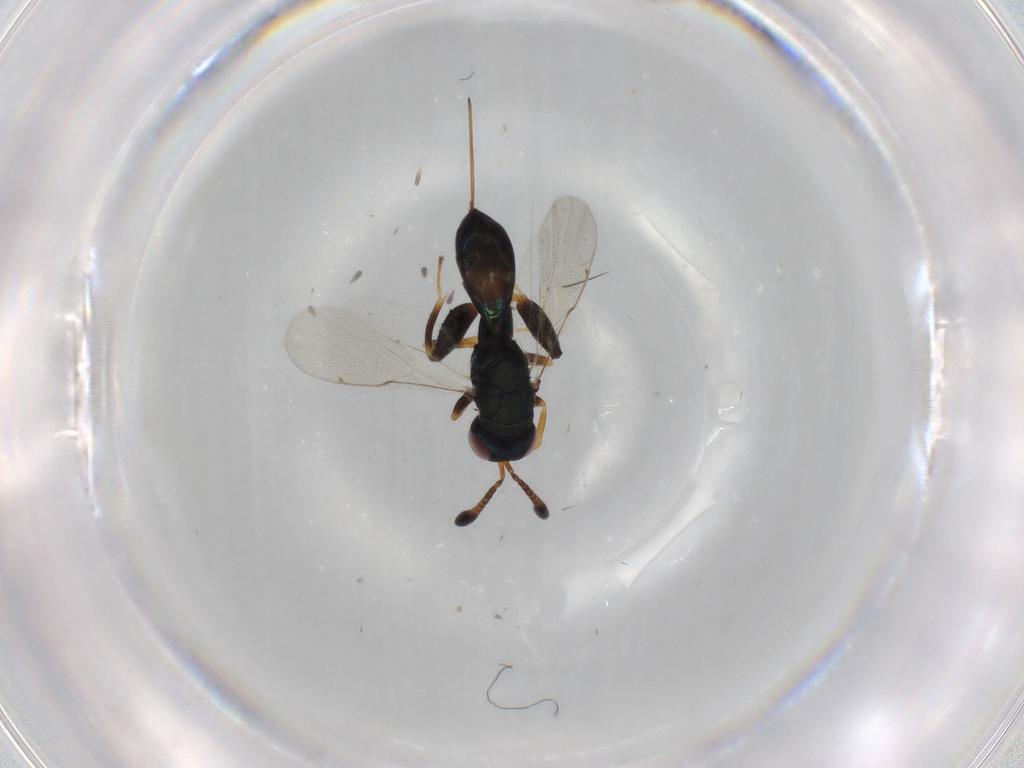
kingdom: Animalia
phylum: Arthropoda
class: Insecta
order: Hymenoptera
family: Torymidae
